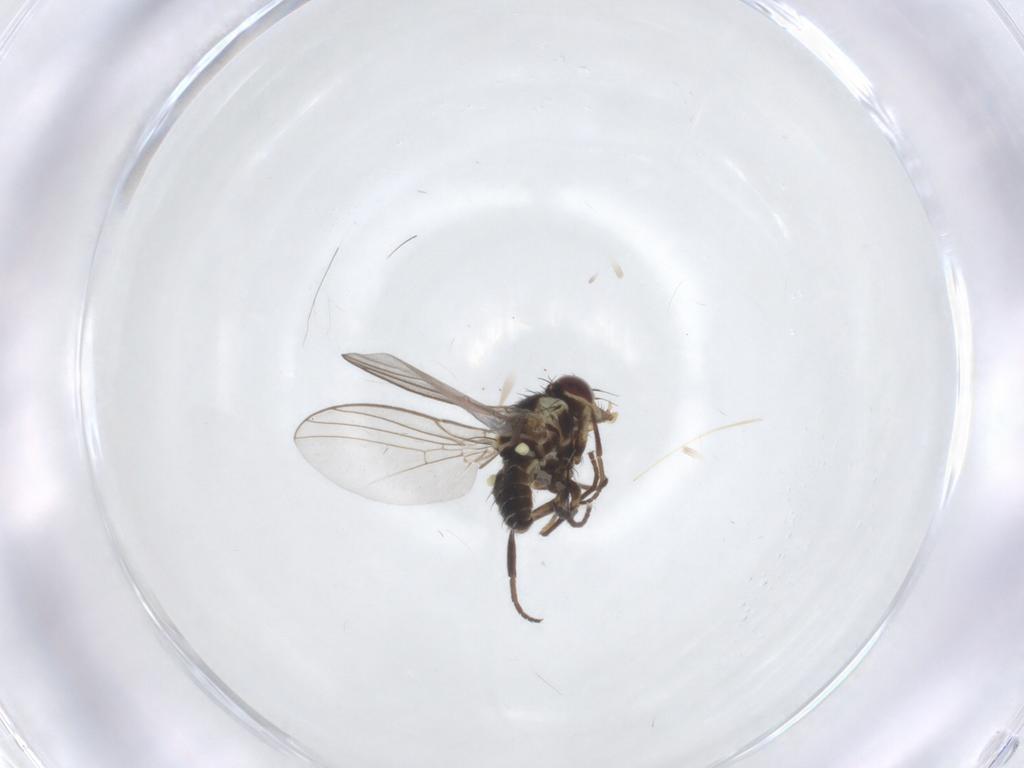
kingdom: Animalia
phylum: Arthropoda
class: Insecta
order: Diptera
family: Agromyzidae
